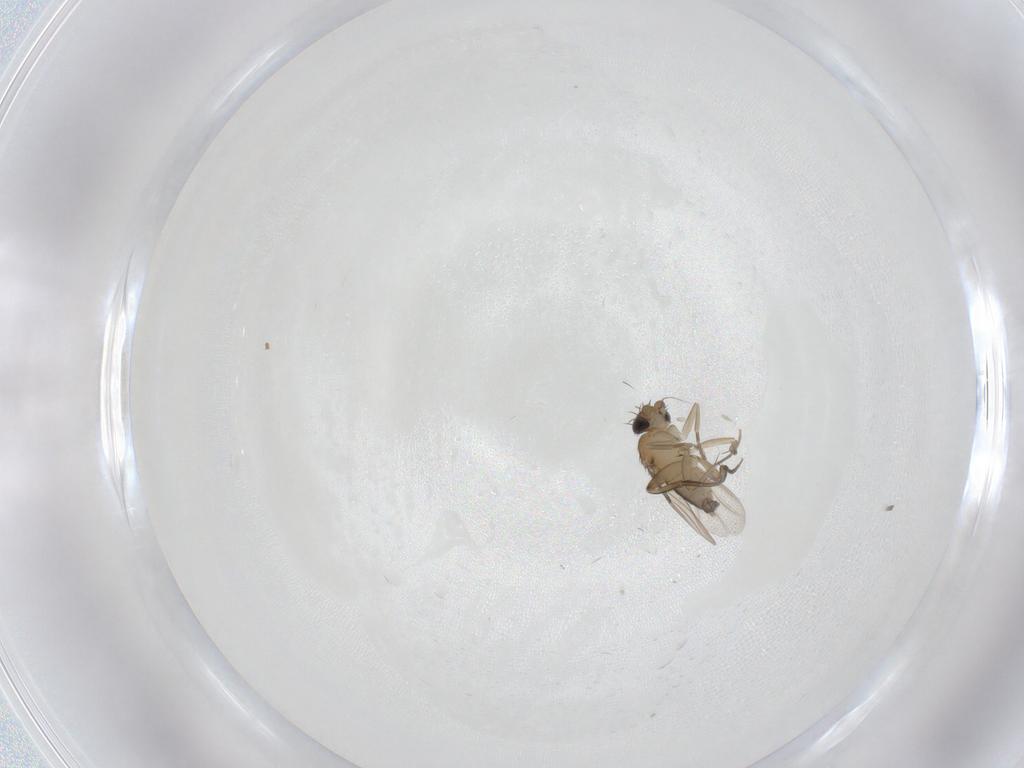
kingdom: Animalia
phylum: Arthropoda
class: Insecta
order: Diptera
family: Phoridae
